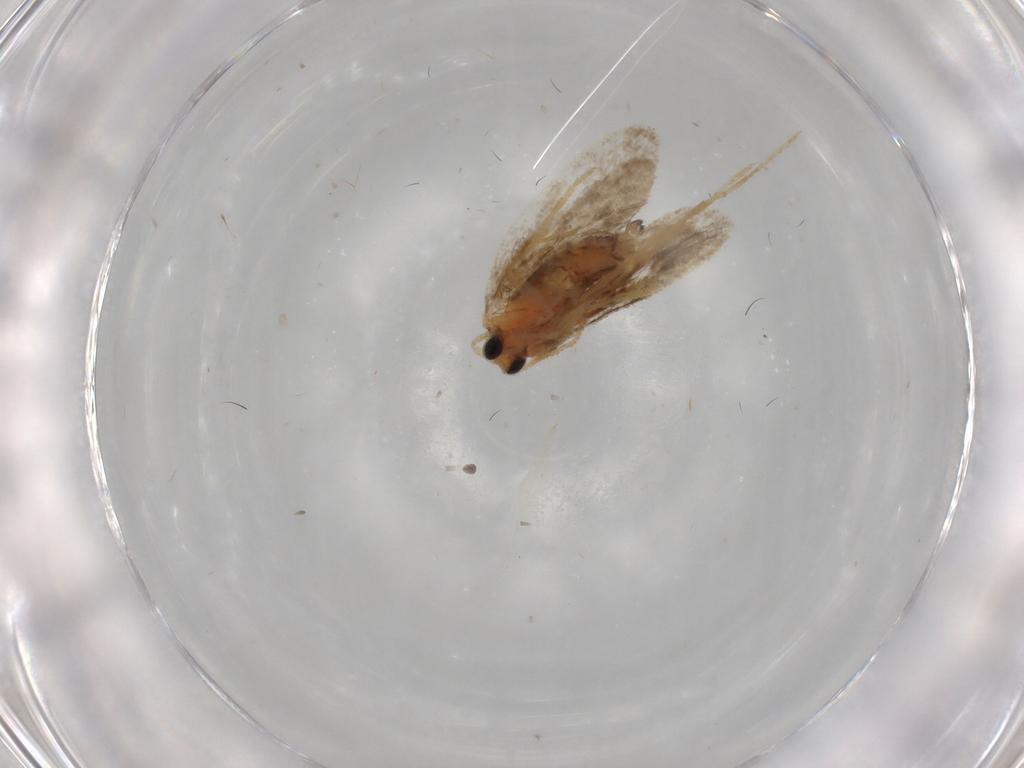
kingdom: Animalia
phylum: Arthropoda
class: Insecta
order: Lepidoptera
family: Psychidae
